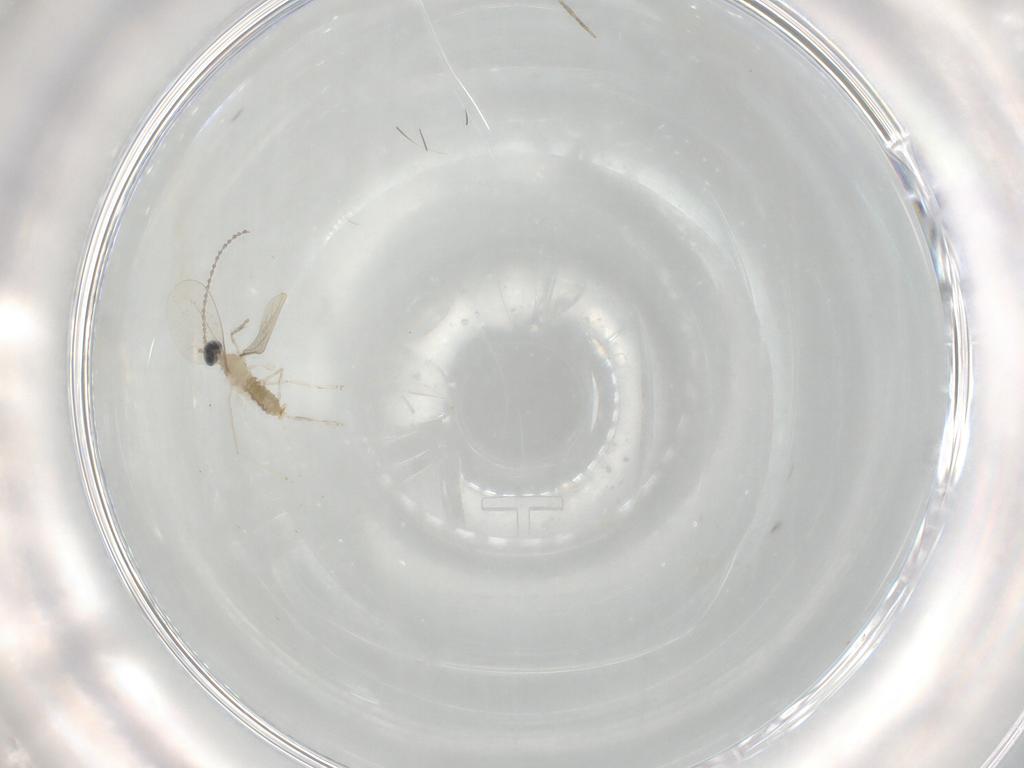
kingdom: Animalia
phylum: Arthropoda
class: Insecta
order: Diptera
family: Cecidomyiidae
